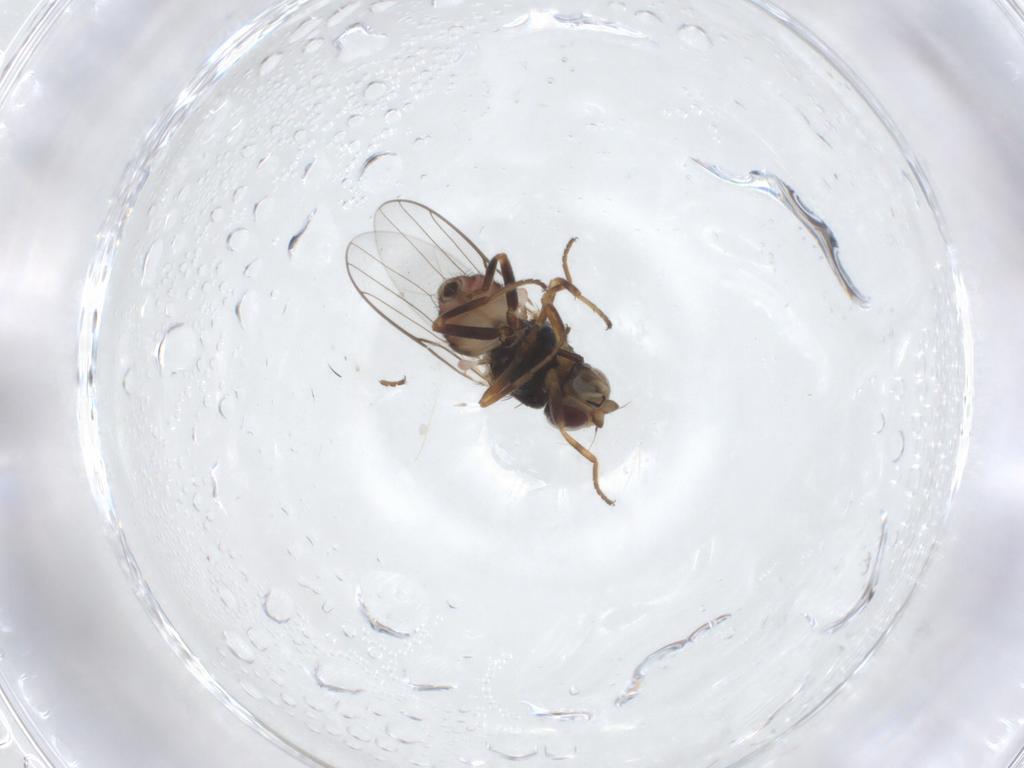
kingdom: Animalia
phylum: Arthropoda
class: Insecta
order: Diptera
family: Chloropidae
